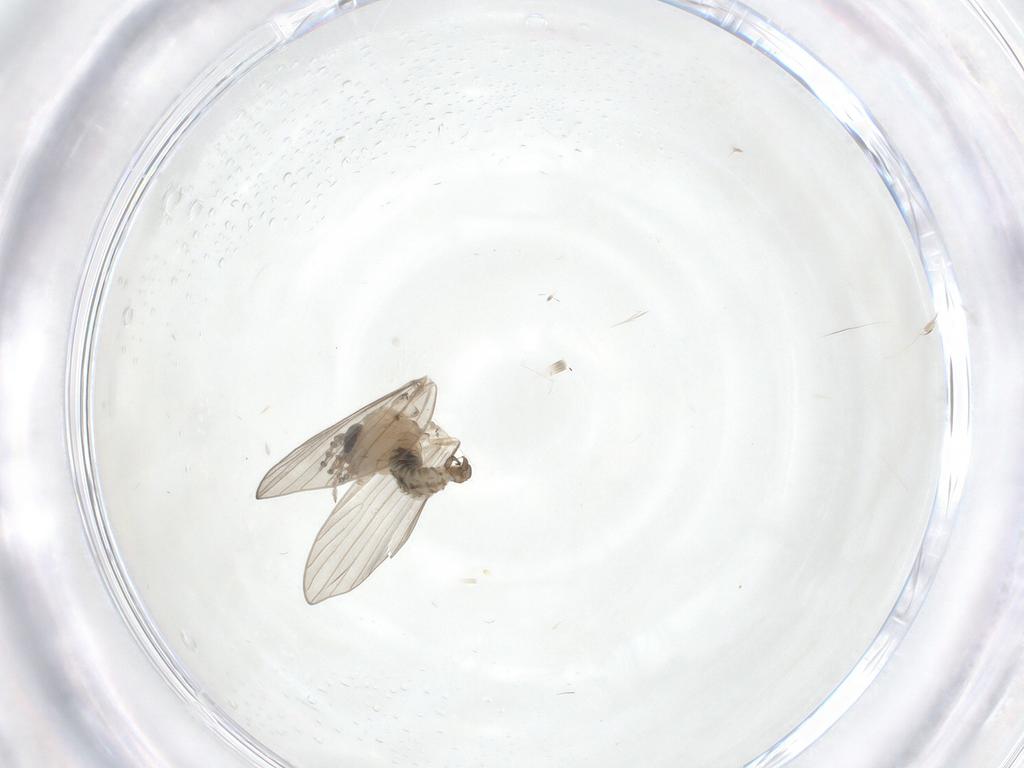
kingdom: Animalia
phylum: Arthropoda
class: Insecta
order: Diptera
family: Psychodidae
